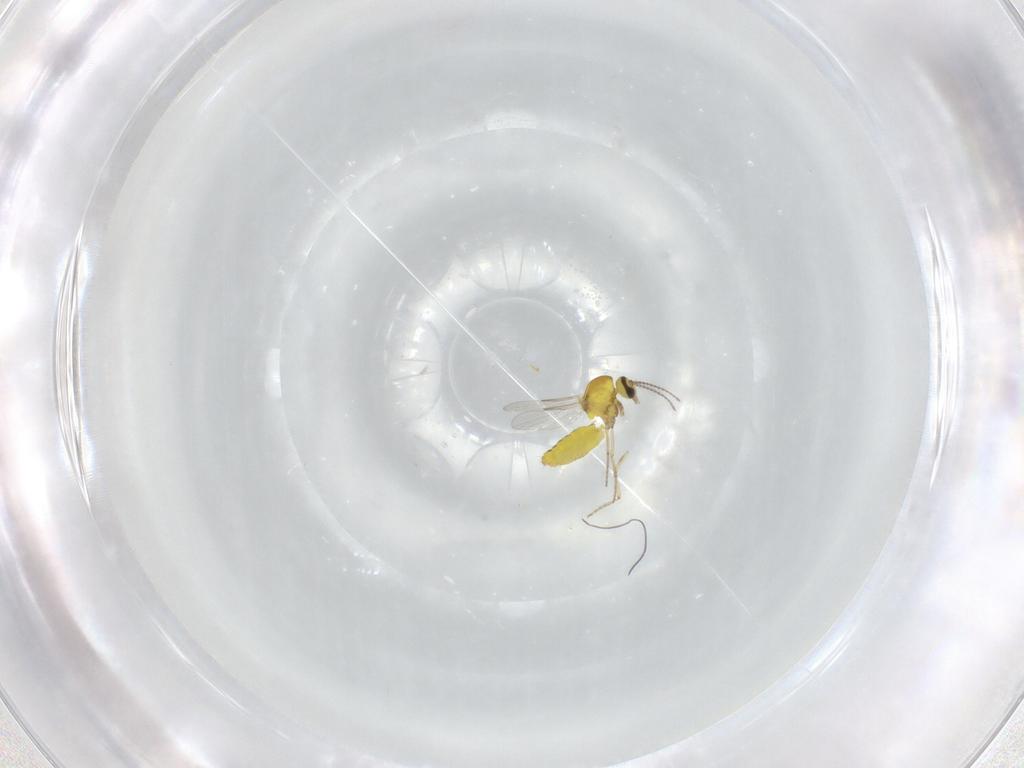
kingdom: Animalia
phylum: Arthropoda
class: Insecta
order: Diptera
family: Ceratopogonidae
